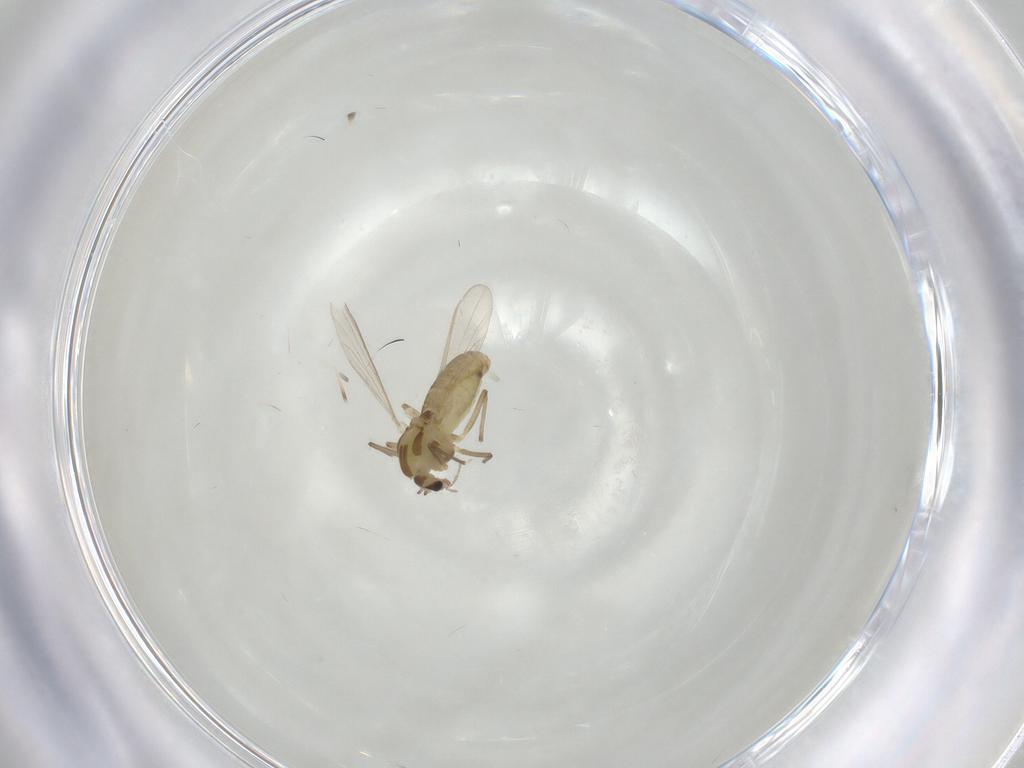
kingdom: Animalia
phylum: Arthropoda
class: Insecta
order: Diptera
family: Chironomidae
